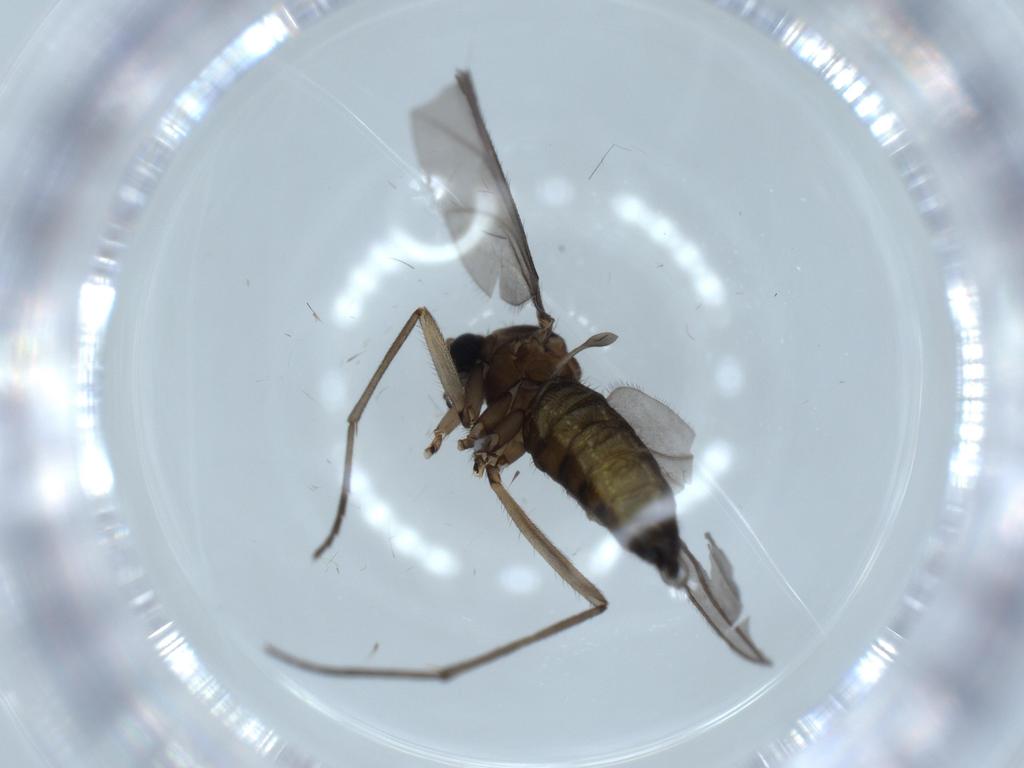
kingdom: Animalia
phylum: Arthropoda
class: Insecta
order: Diptera
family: Sciaridae
